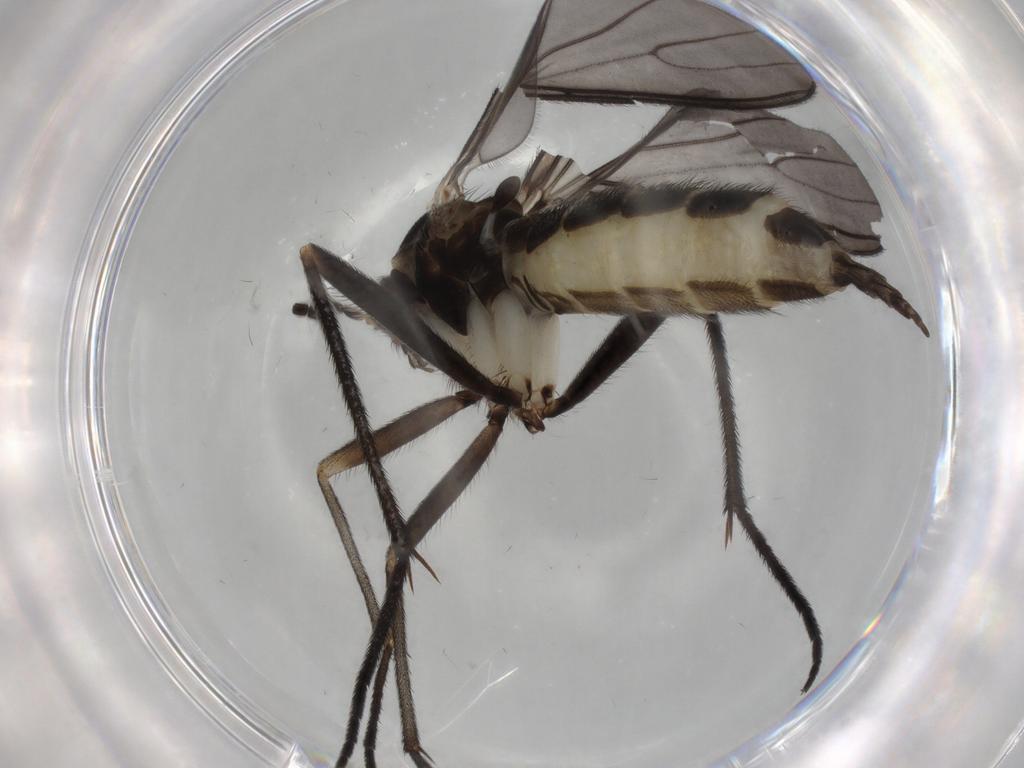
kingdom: Animalia
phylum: Arthropoda
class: Insecta
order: Diptera
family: Sciaridae
